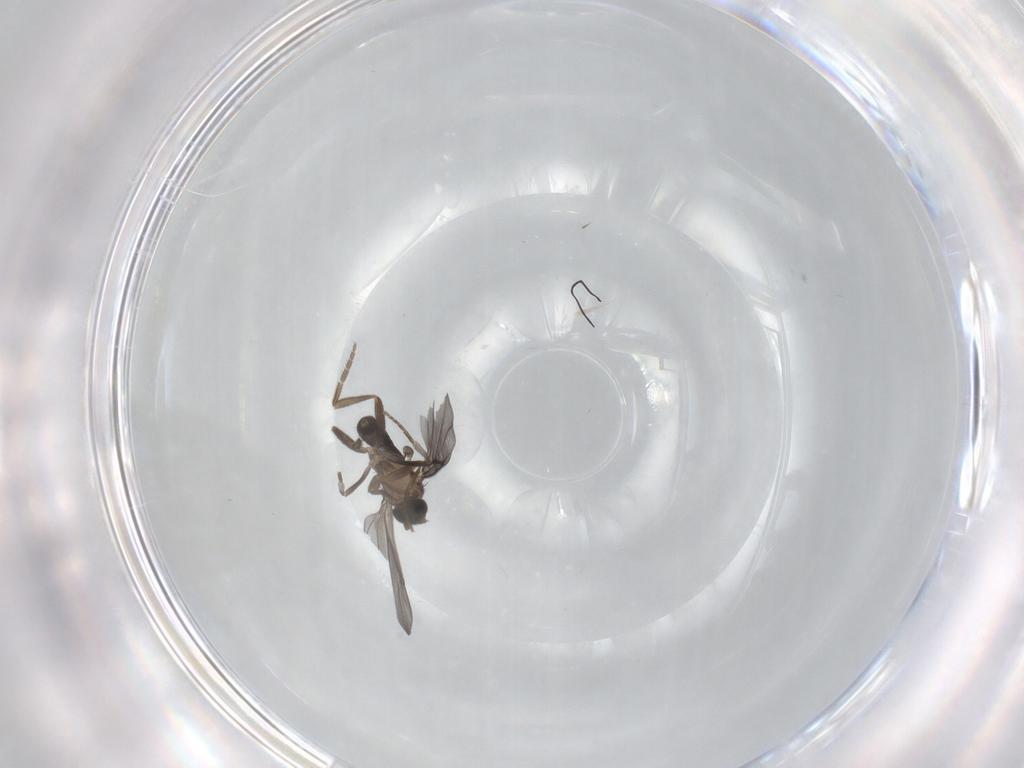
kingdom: Animalia
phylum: Arthropoda
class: Insecta
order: Diptera
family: Phoridae
